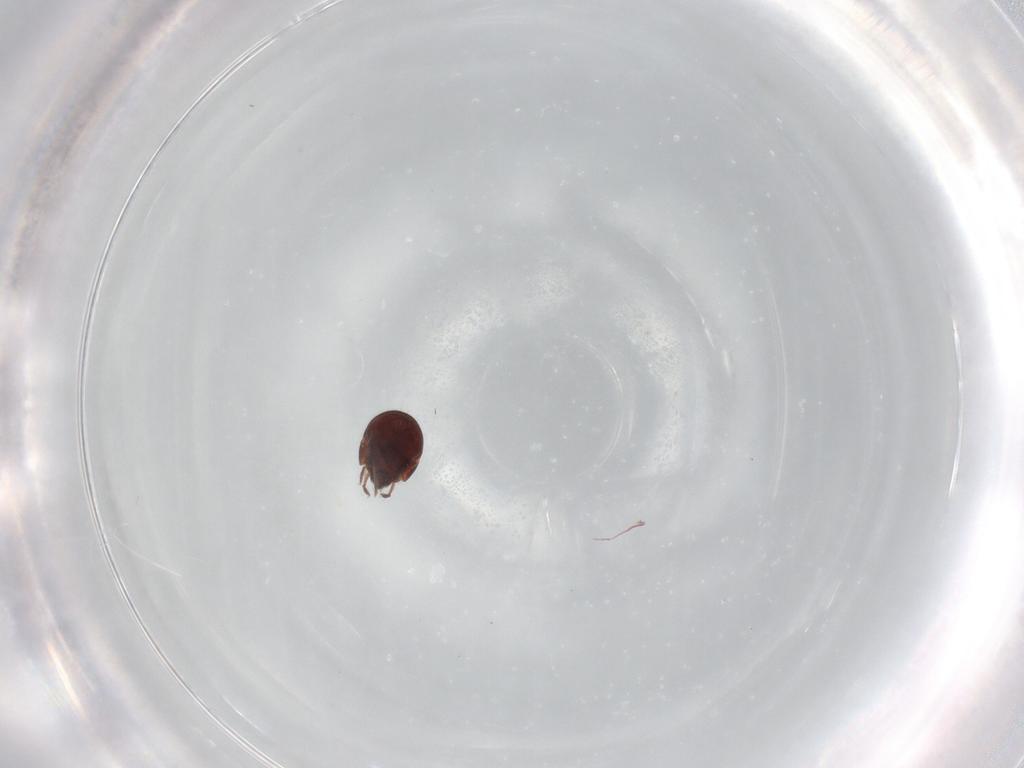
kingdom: Animalia
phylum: Arthropoda
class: Arachnida
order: Sarcoptiformes
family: Humerobatidae
